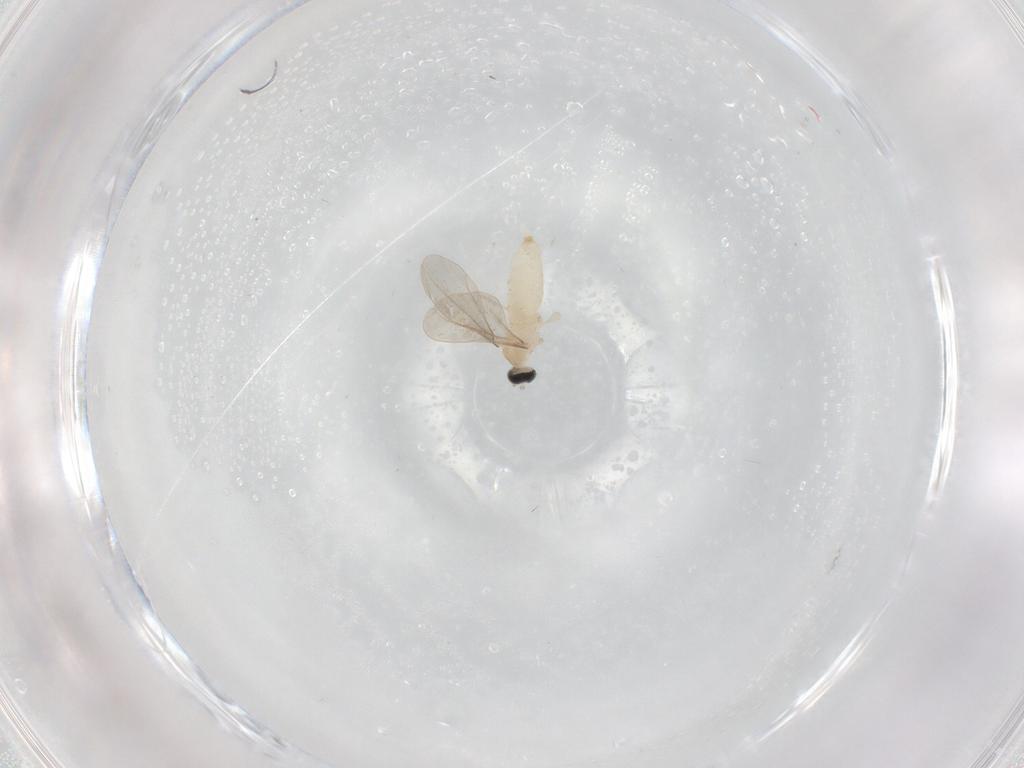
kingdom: Animalia
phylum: Arthropoda
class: Insecta
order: Diptera
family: Cecidomyiidae
